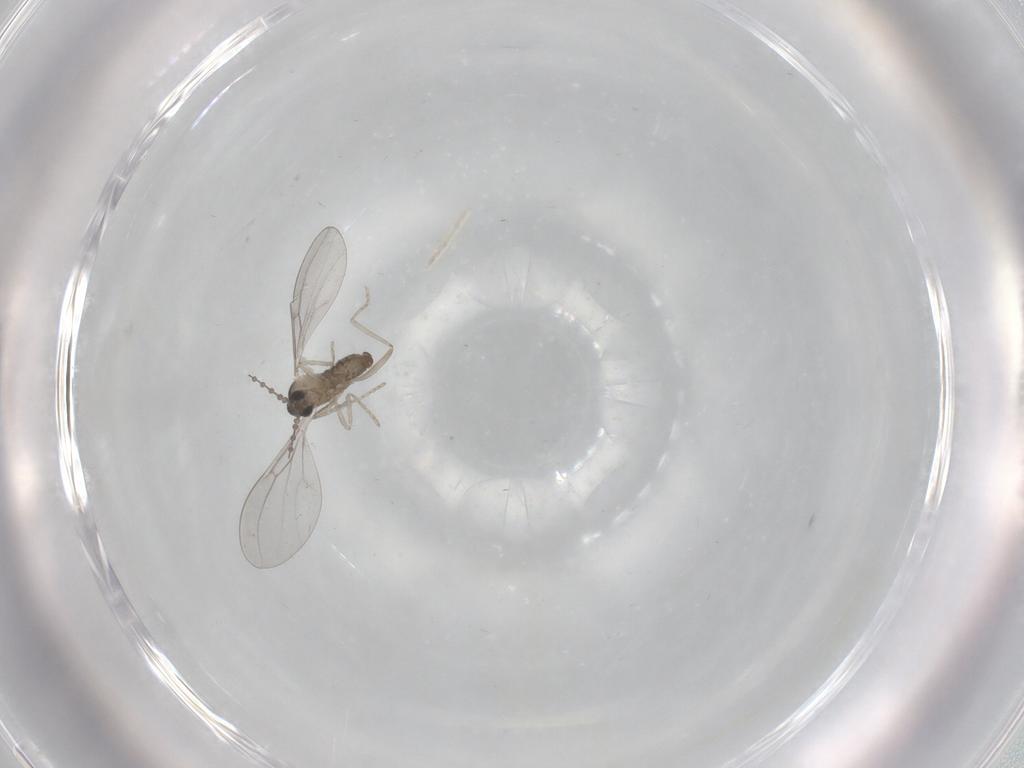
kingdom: Animalia
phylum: Arthropoda
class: Insecta
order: Diptera
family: Cecidomyiidae
